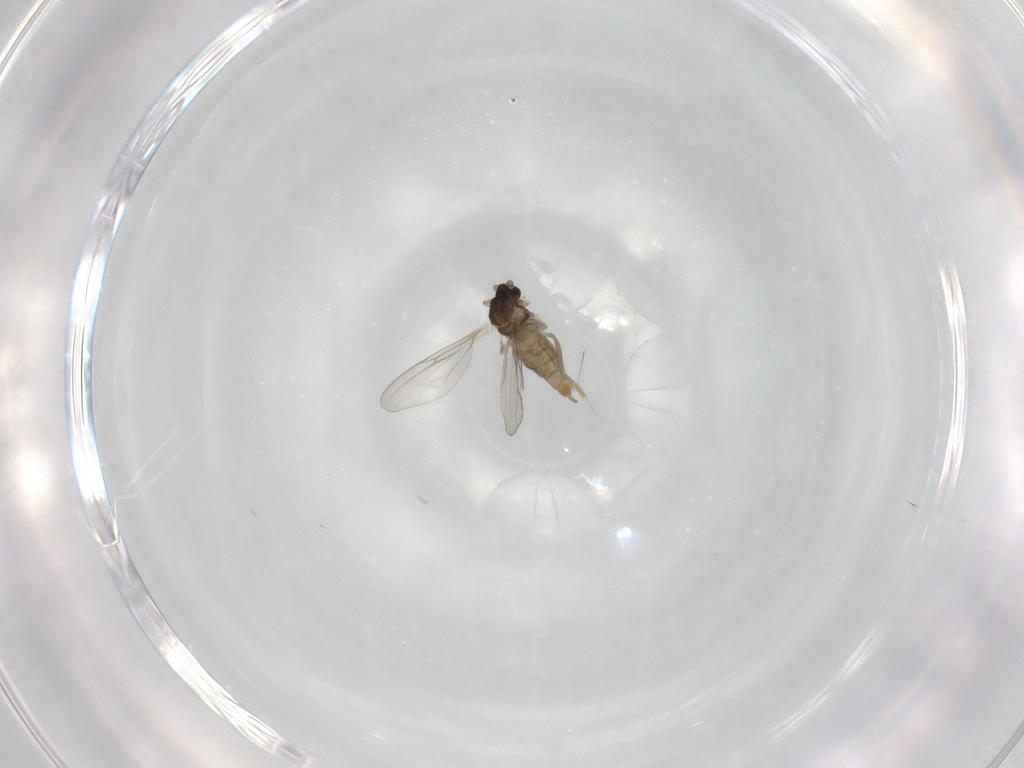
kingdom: Animalia
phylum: Arthropoda
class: Insecta
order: Diptera
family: Cecidomyiidae
